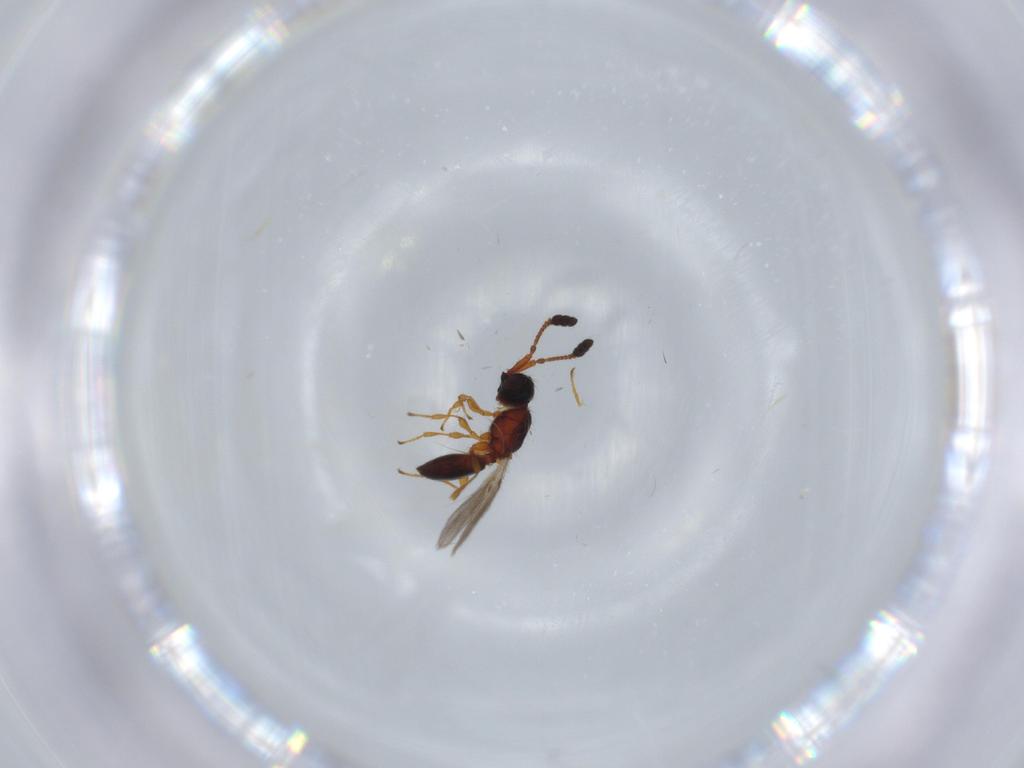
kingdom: Animalia
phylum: Arthropoda
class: Insecta
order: Hymenoptera
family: Diapriidae
